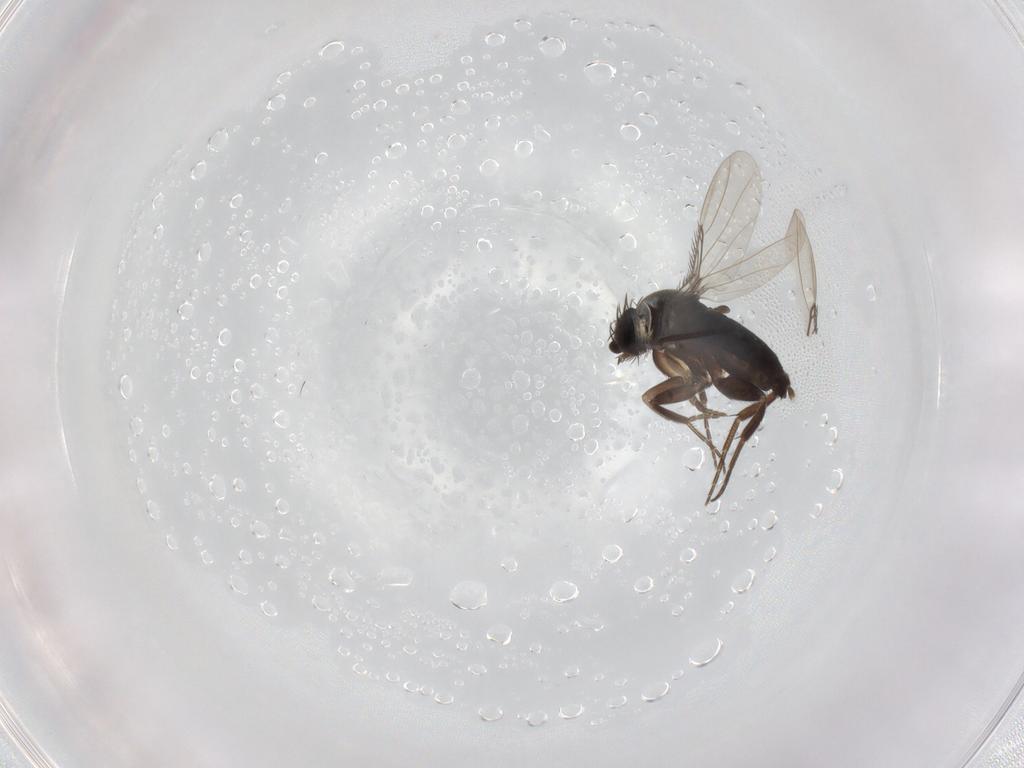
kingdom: Animalia
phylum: Arthropoda
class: Insecta
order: Diptera
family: Phoridae
